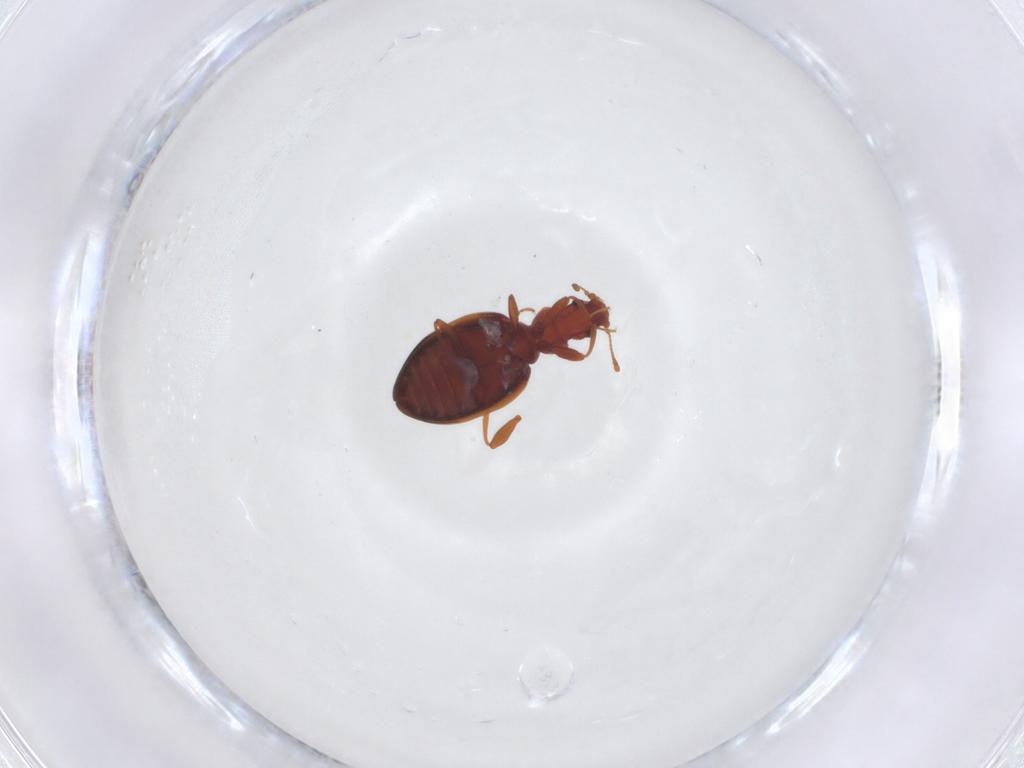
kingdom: Animalia
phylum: Arthropoda
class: Insecta
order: Coleoptera
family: Latridiidae
